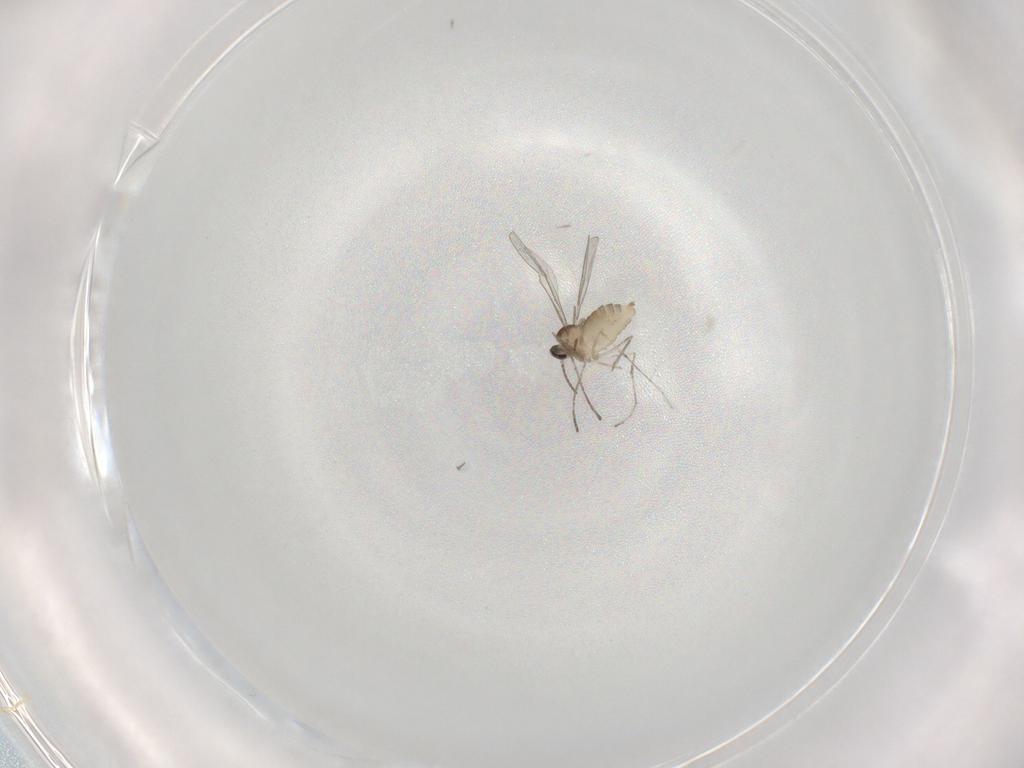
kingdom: Animalia
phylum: Arthropoda
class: Insecta
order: Diptera
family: Cecidomyiidae
